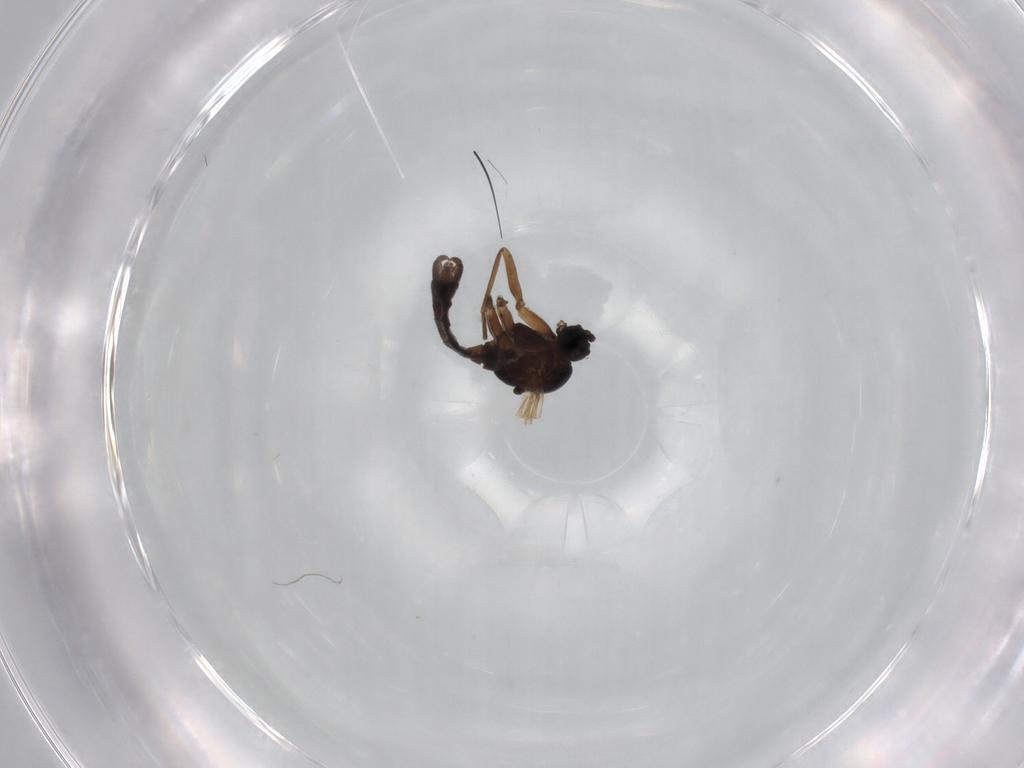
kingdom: Animalia
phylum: Arthropoda
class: Insecta
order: Diptera
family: Sciaridae
